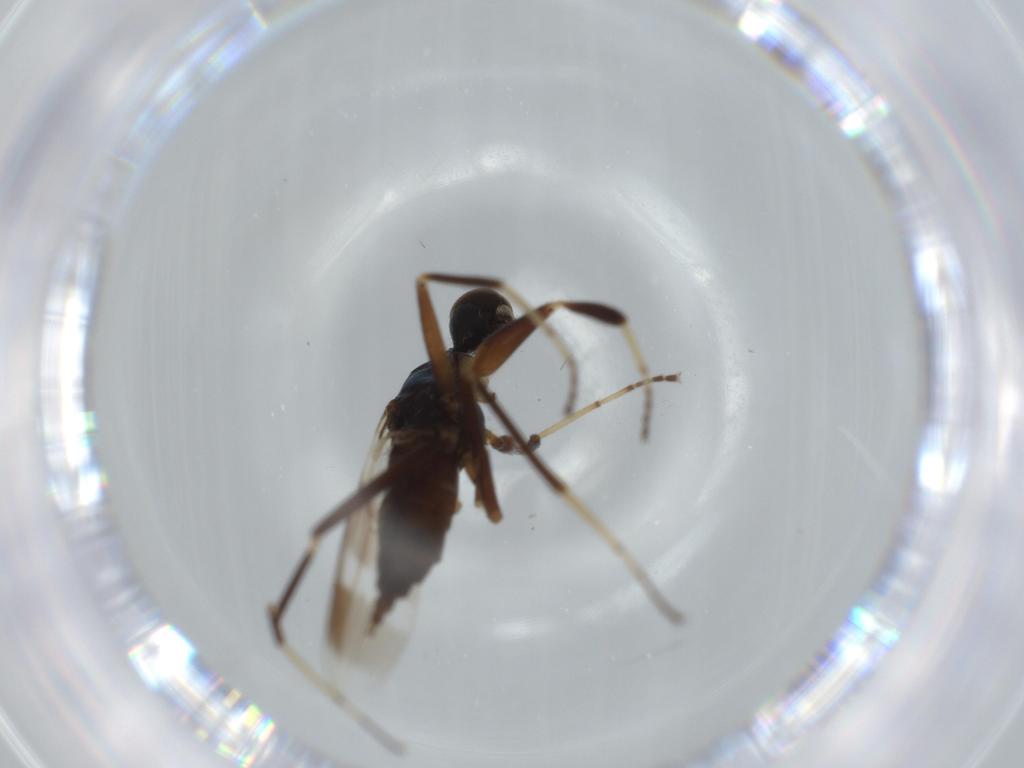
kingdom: Animalia
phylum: Arthropoda
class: Insecta
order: Diptera
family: Hybotidae
